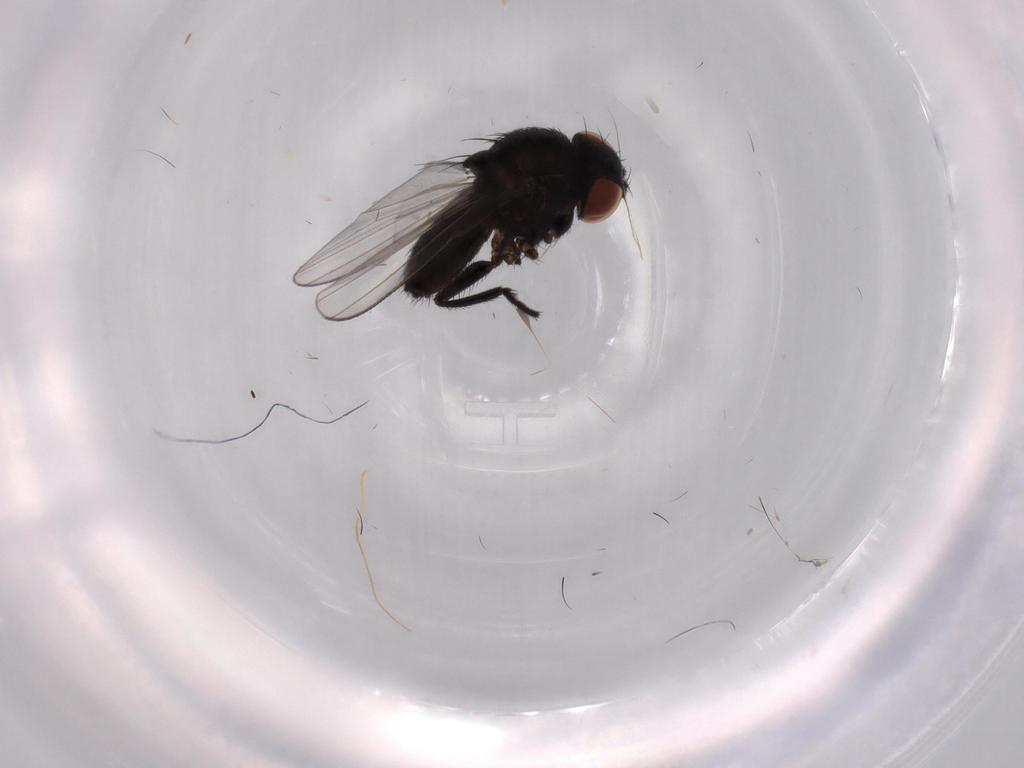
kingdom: Animalia
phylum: Arthropoda
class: Insecta
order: Diptera
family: Milichiidae
